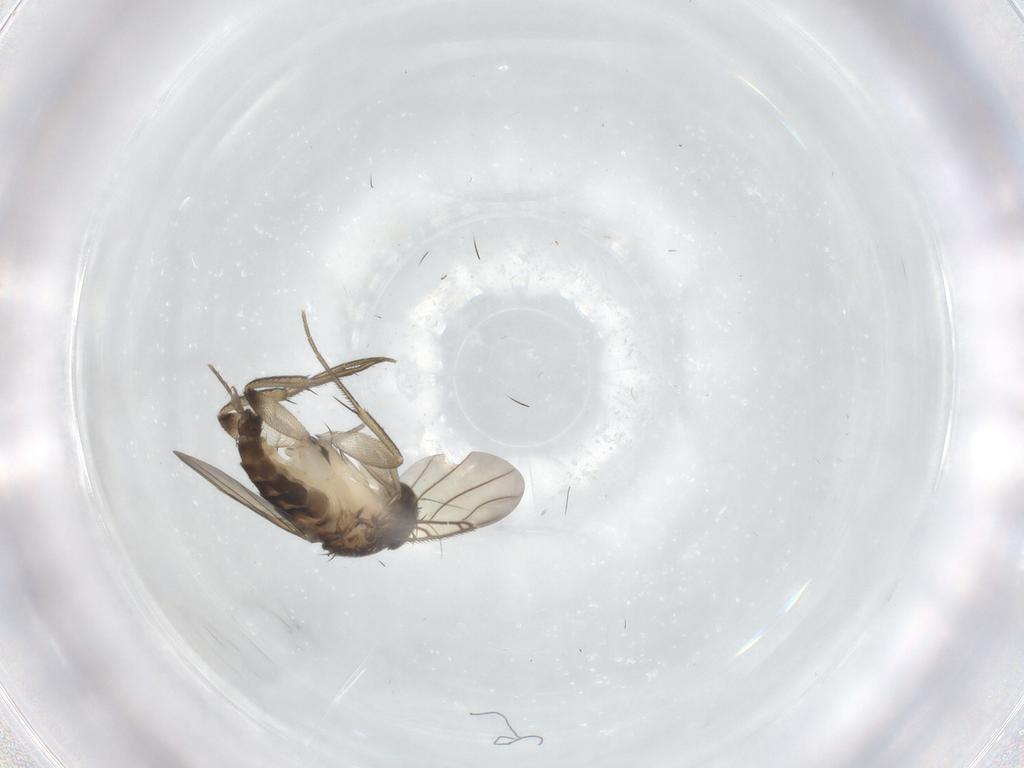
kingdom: Animalia
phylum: Arthropoda
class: Insecta
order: Diptera
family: Phoridae
